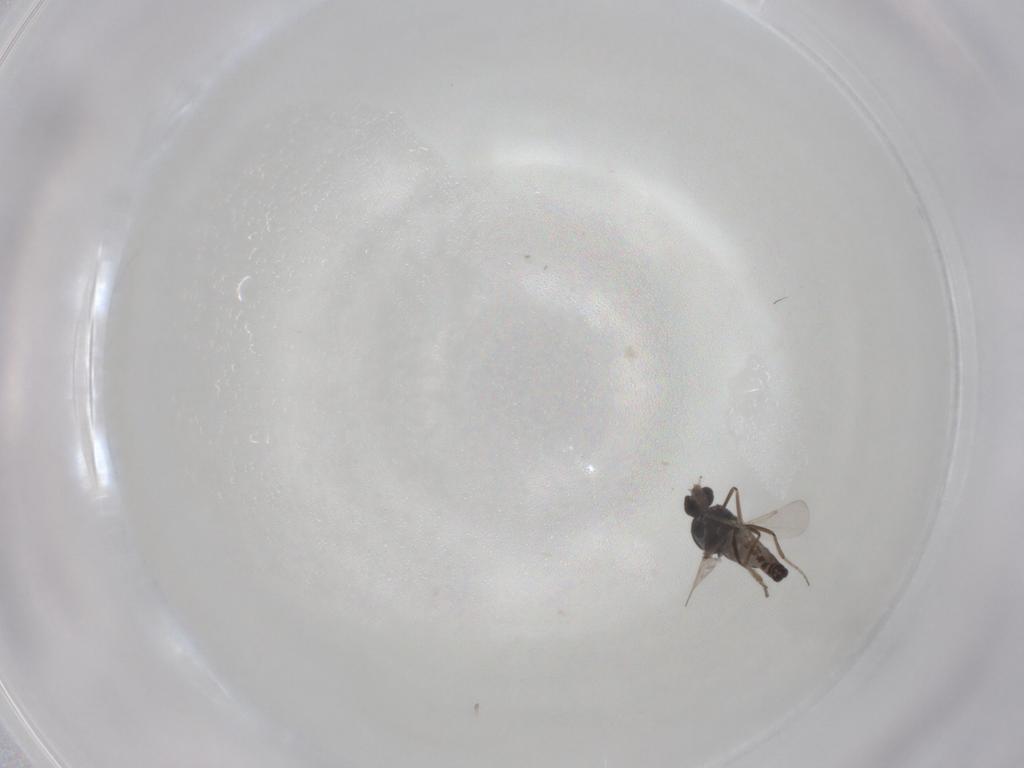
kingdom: Animalia
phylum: Arthropoda
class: Insecta
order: Diptera
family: Ceratopogonidae
